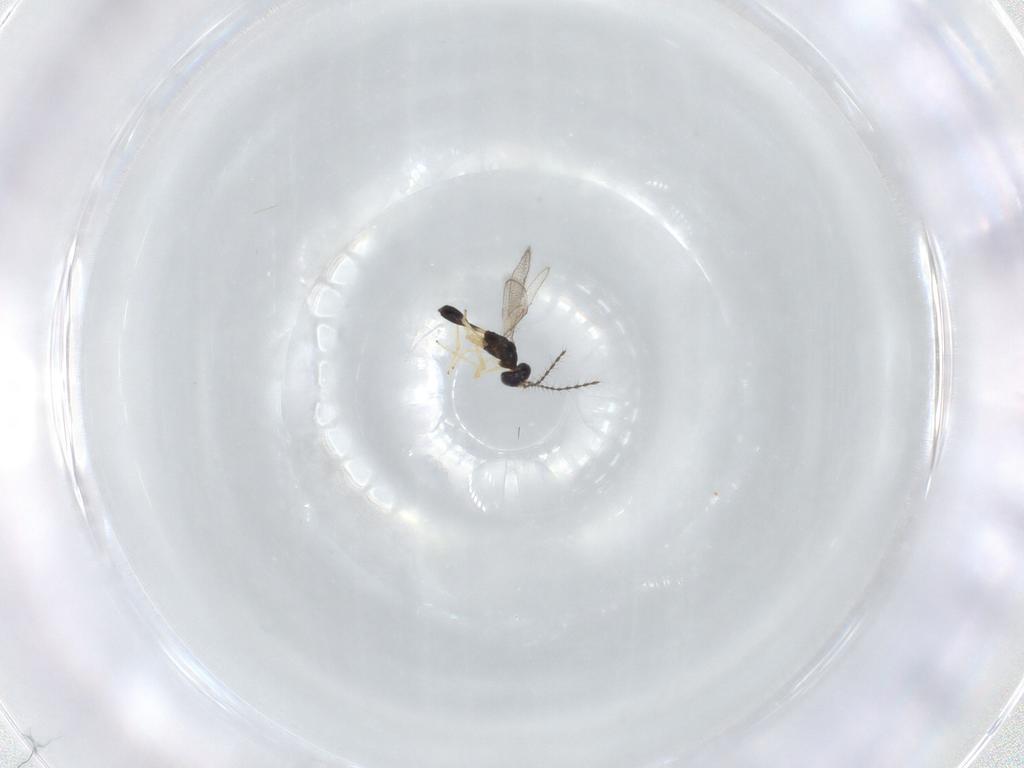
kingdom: Animalia
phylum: Arthropoda
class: Insecta
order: Hymenoptera
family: Diparidae
